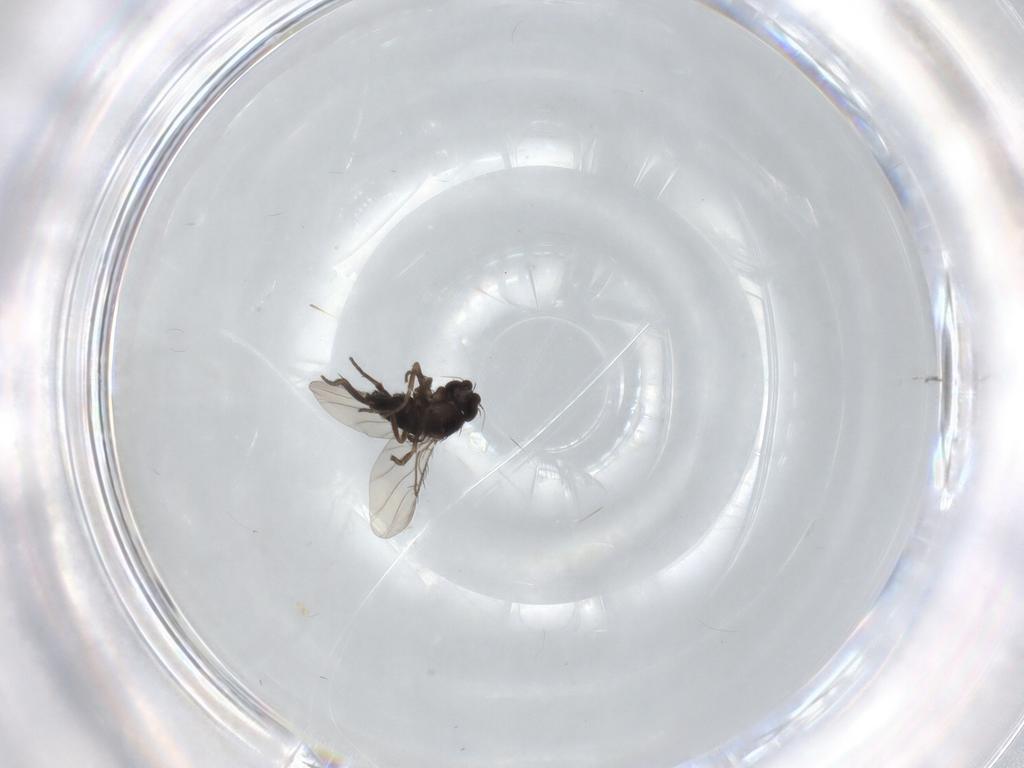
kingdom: Animalia
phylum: Arthropoda
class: Insecta
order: Diptera
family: Phoridae
